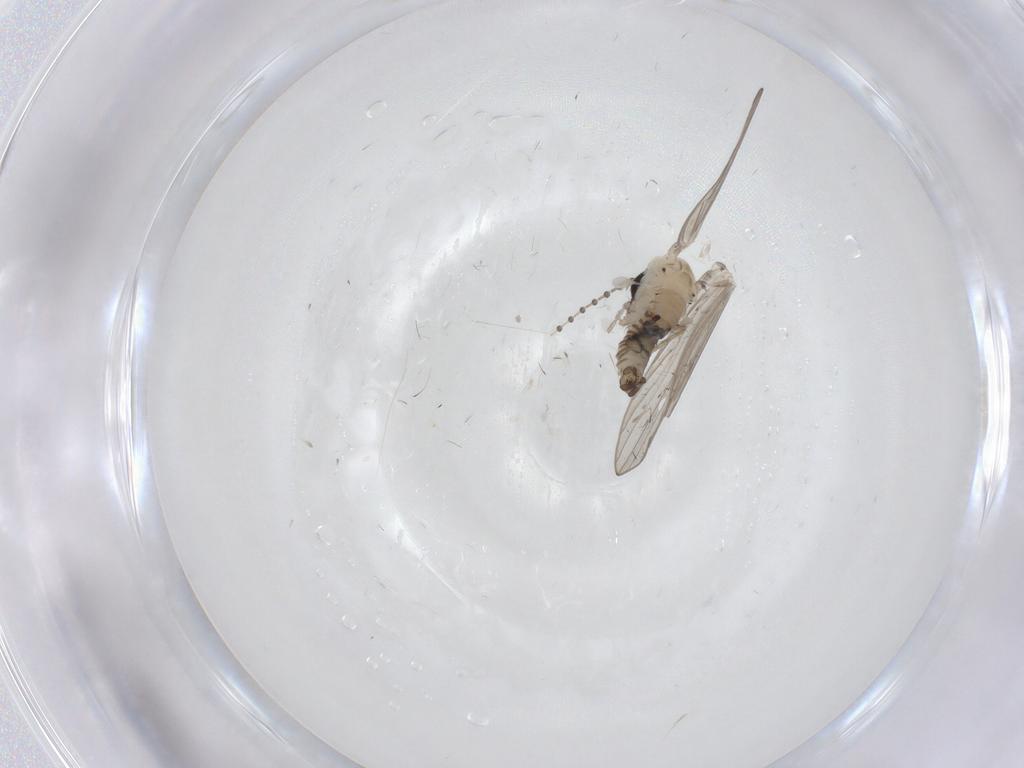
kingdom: Animalia
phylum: Arthropoda
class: Insecta
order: Diptera
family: Psychodidae
